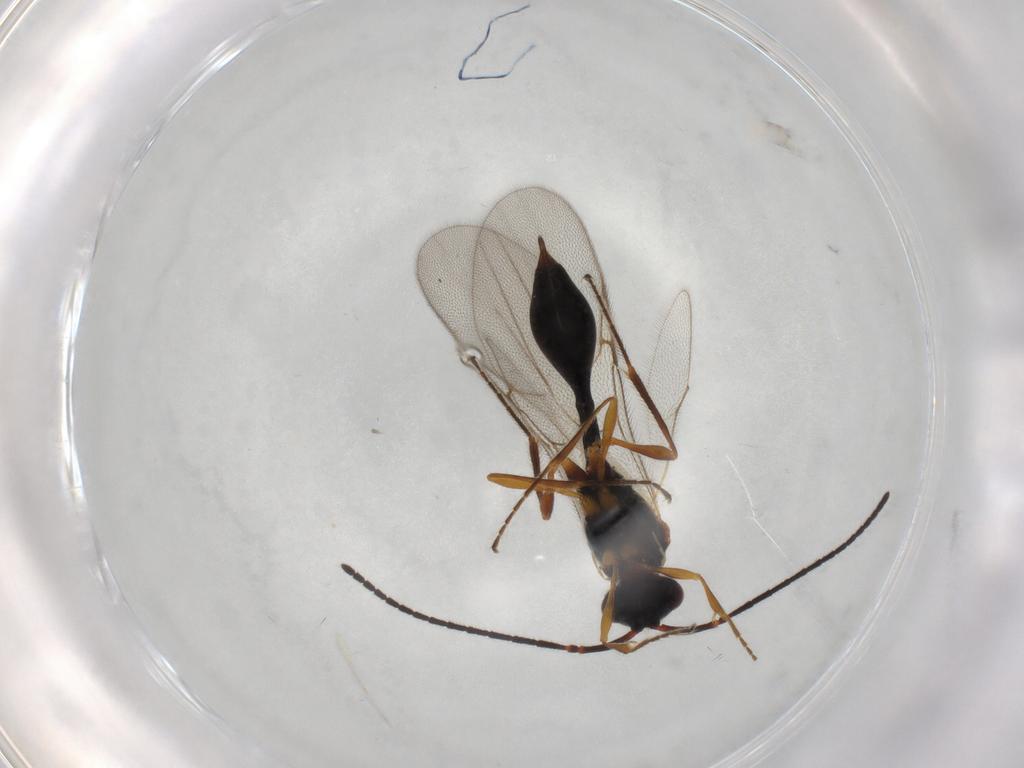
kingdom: Animalia
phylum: Arthropoda
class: Insecta
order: Hymenoptera
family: Diapriidae
